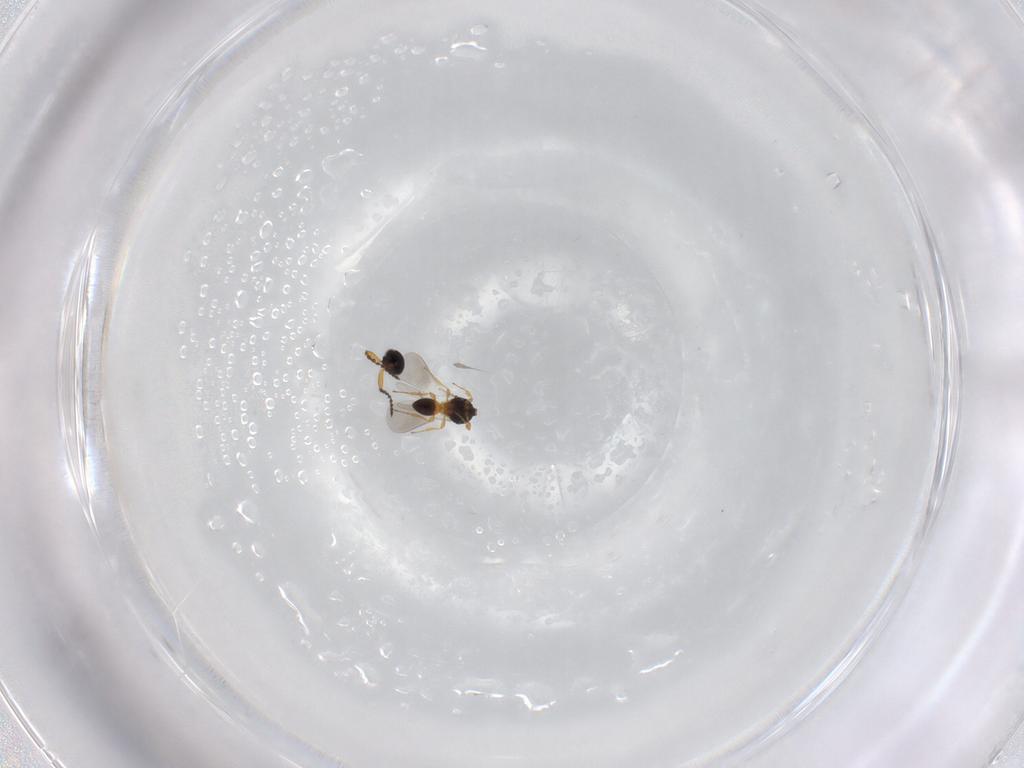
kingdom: Animalia
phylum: Arthropoda
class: Insecta
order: Hymenoptera
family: Platygastridae
